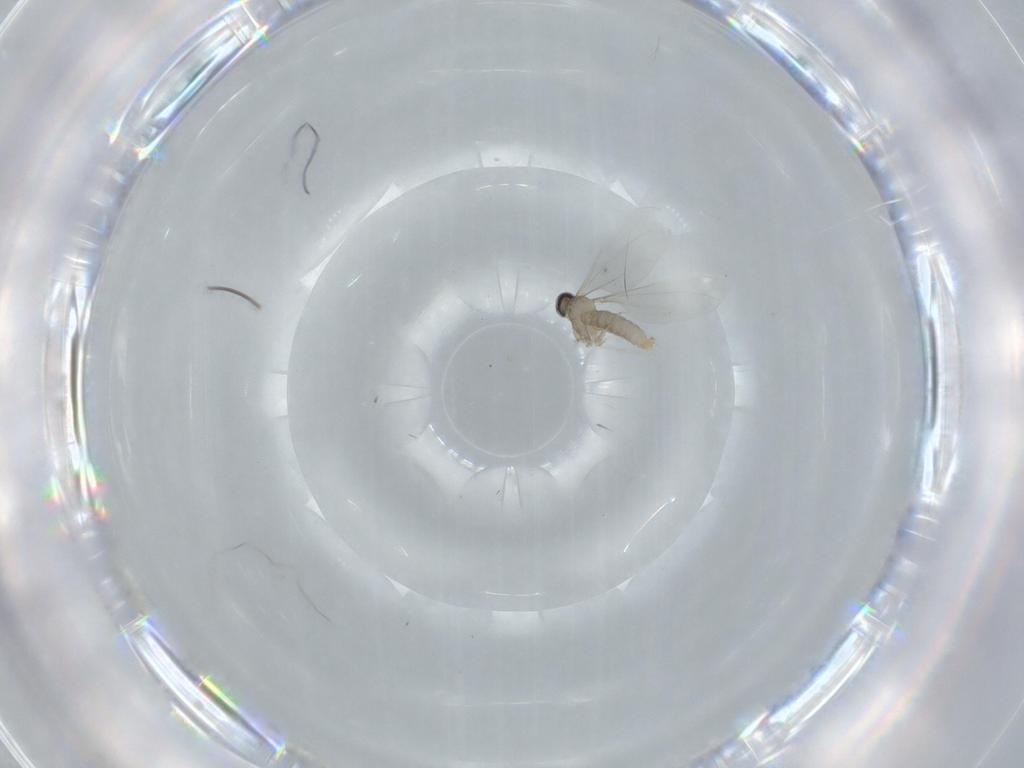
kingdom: Animalia
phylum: Arthropoda
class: Insecta
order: Diptera
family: Cecidomyiidae
